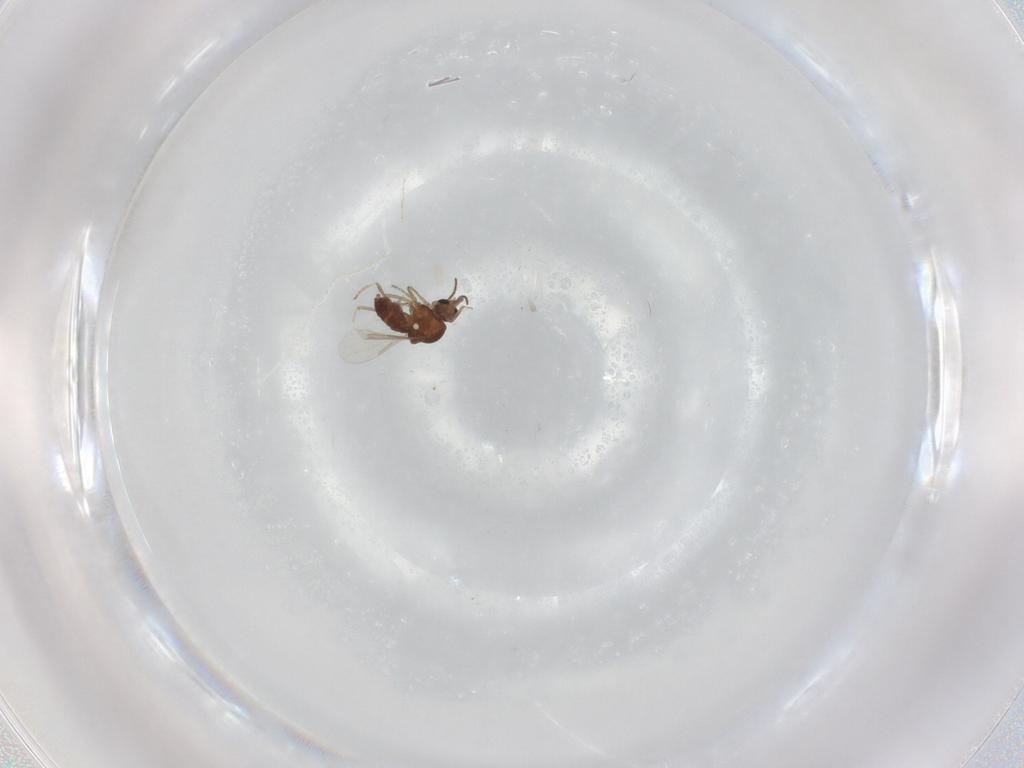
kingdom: Animalia
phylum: Arthropoda
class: Insecta
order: Diptera
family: Ceratopogonidae
